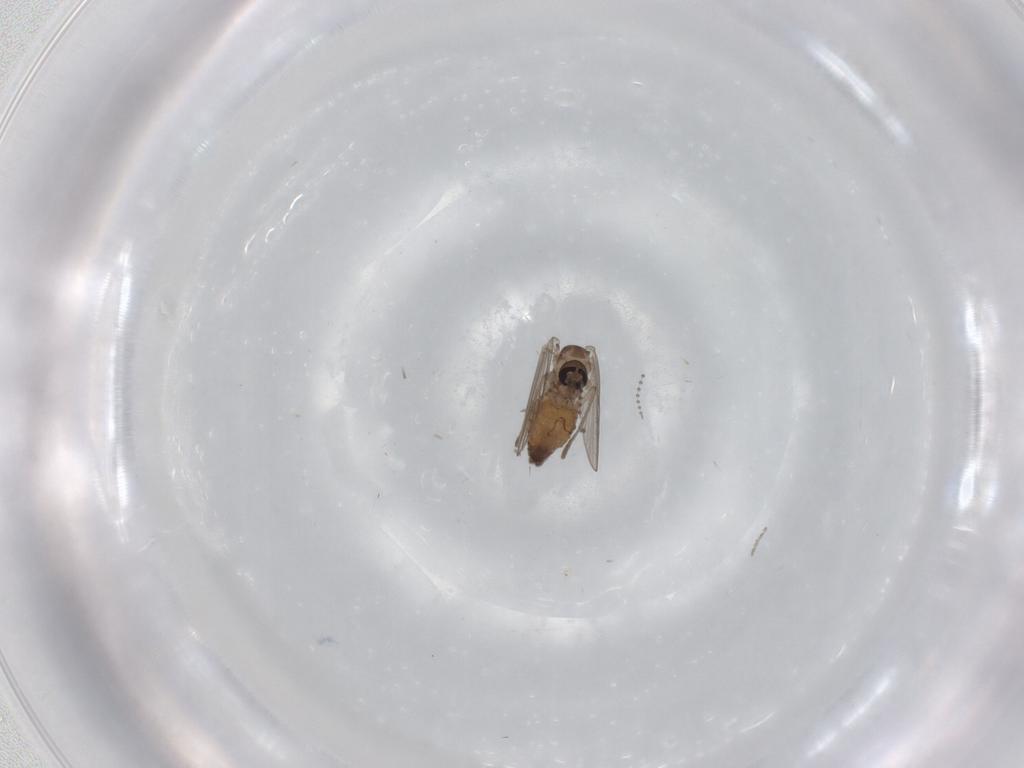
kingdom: Animalia
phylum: Arthropoda
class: Insecta
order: Diptera
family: Psychodidae
